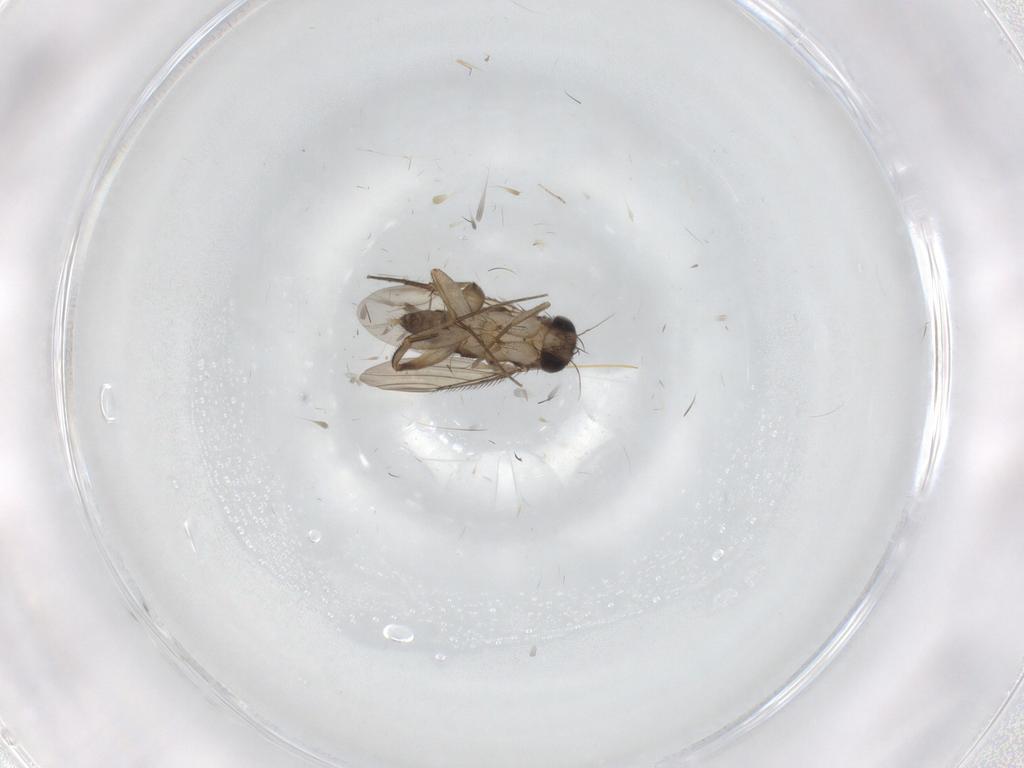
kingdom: Animalia
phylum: Arthropoda
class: Insecta
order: Diptera
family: Phoridae
